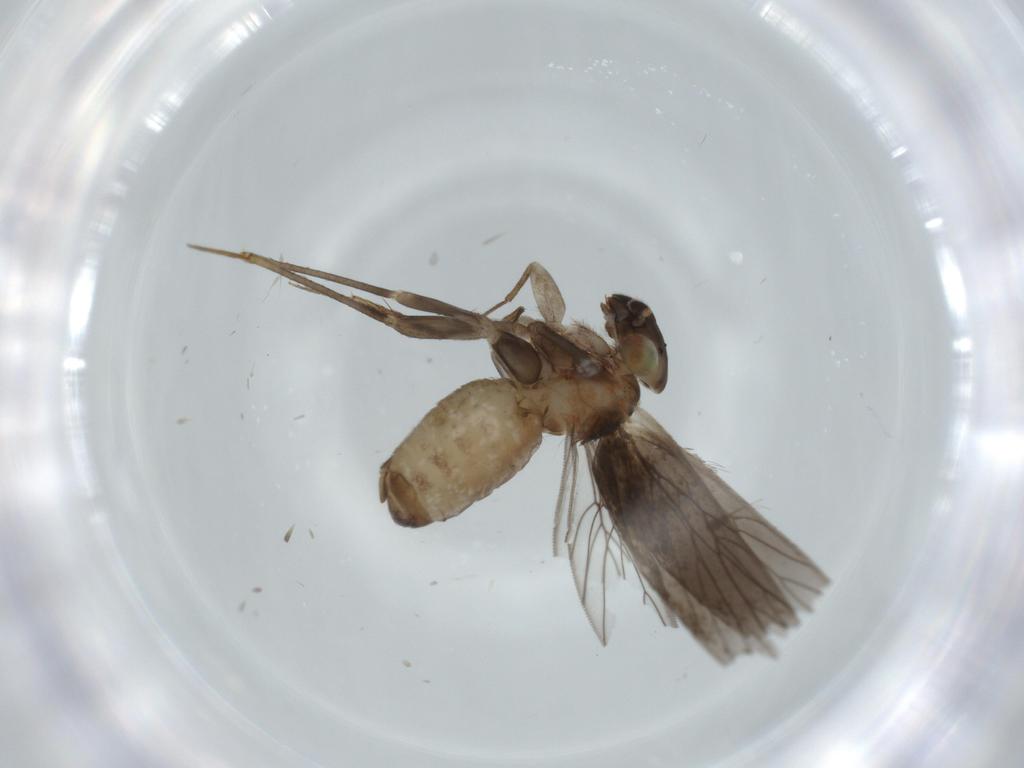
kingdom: Animalia
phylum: Arthropoda
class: Insecta
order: Psocodea
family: Lepidopsocidae
